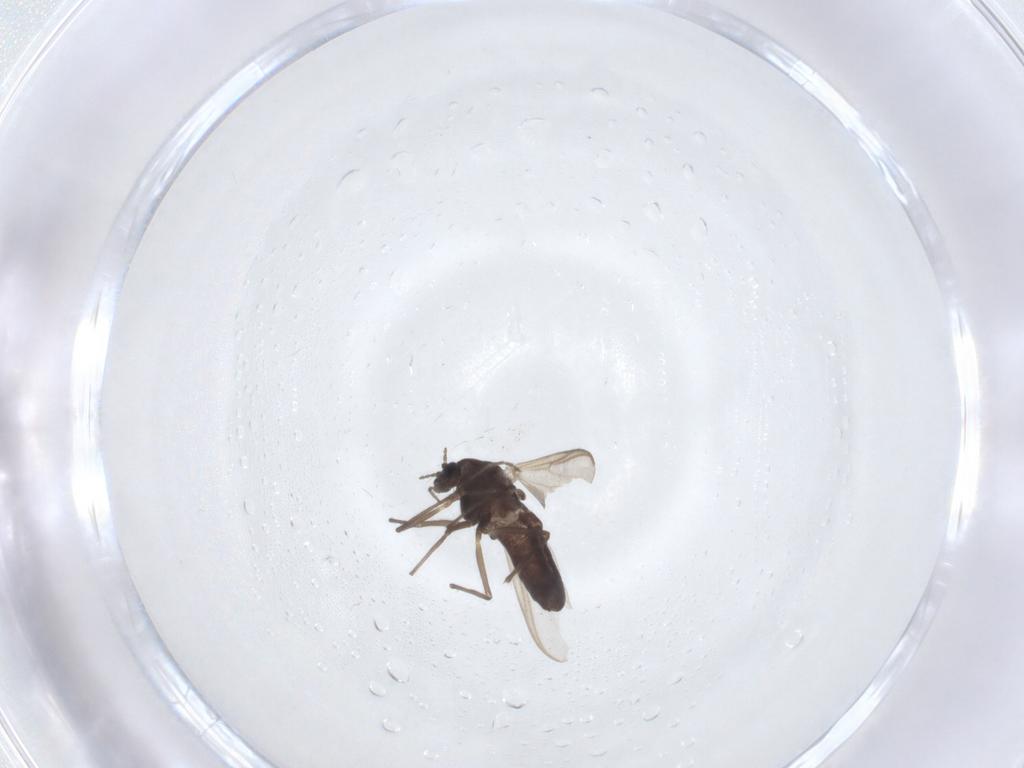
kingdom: Animalia
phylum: Arthropoda
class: Insecta
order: Diptera
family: Chironomidae
